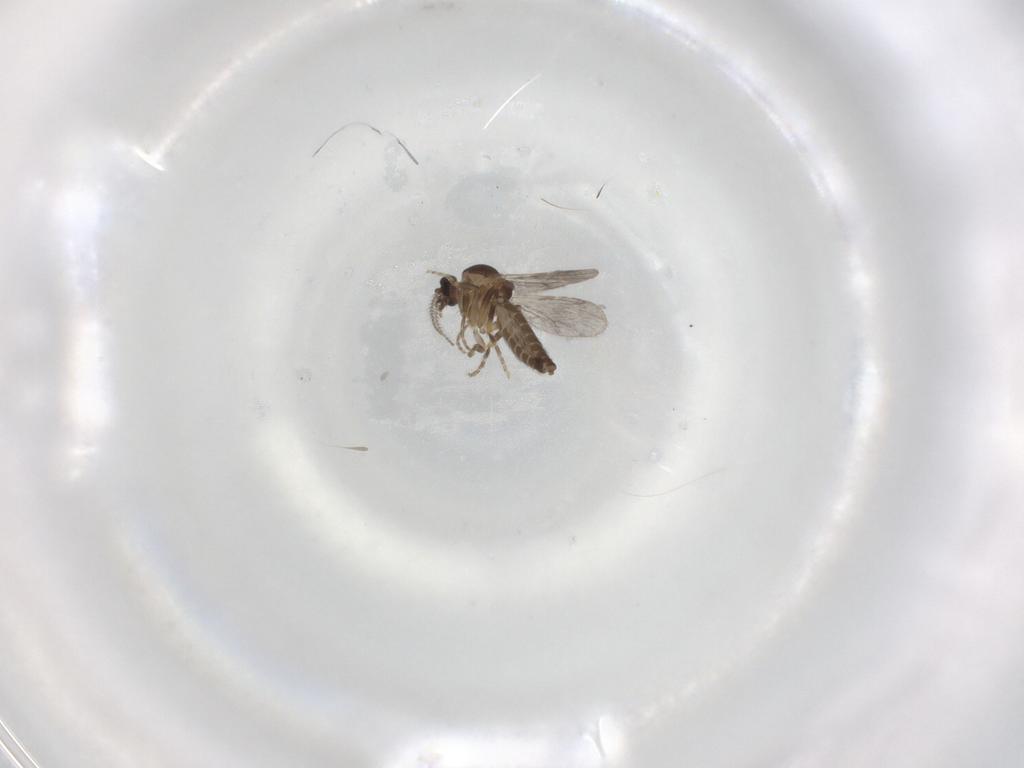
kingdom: Animalia
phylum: Arthropoda
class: Insecta
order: Diptera
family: Ceratopogonidae
